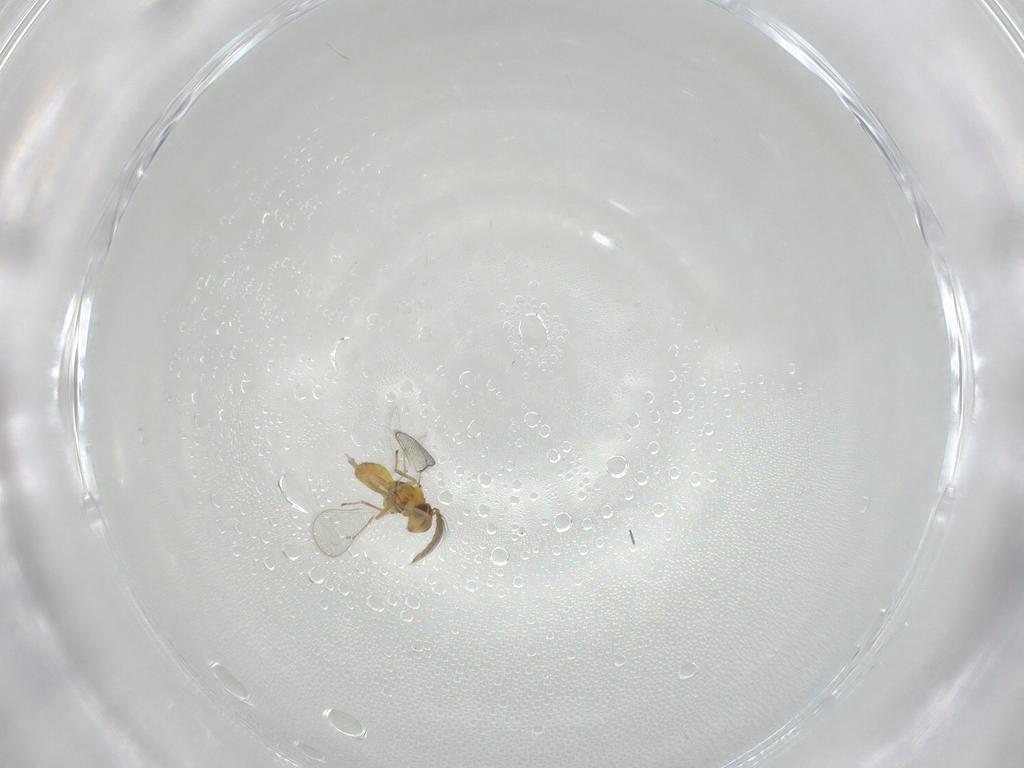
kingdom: Animalia
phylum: Arthropoda
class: Insecta
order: Hymenoptera
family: Eulophidae
